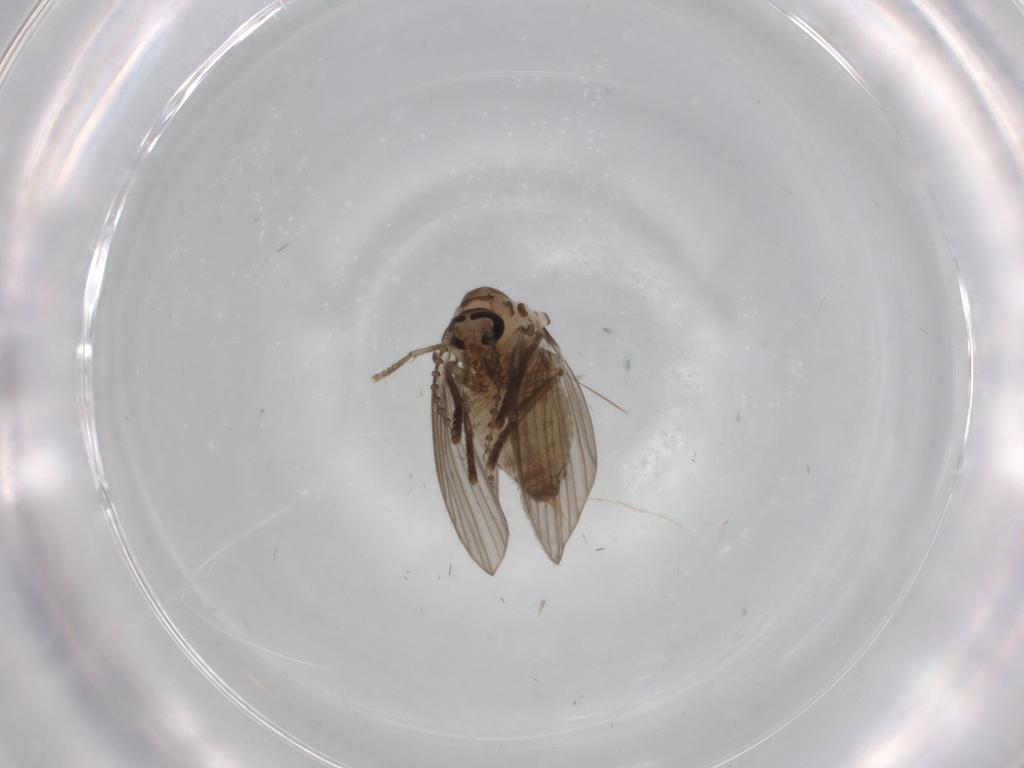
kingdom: Animalia
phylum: Arthropoda
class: Insecta
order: Diptera
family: Psychodidae
